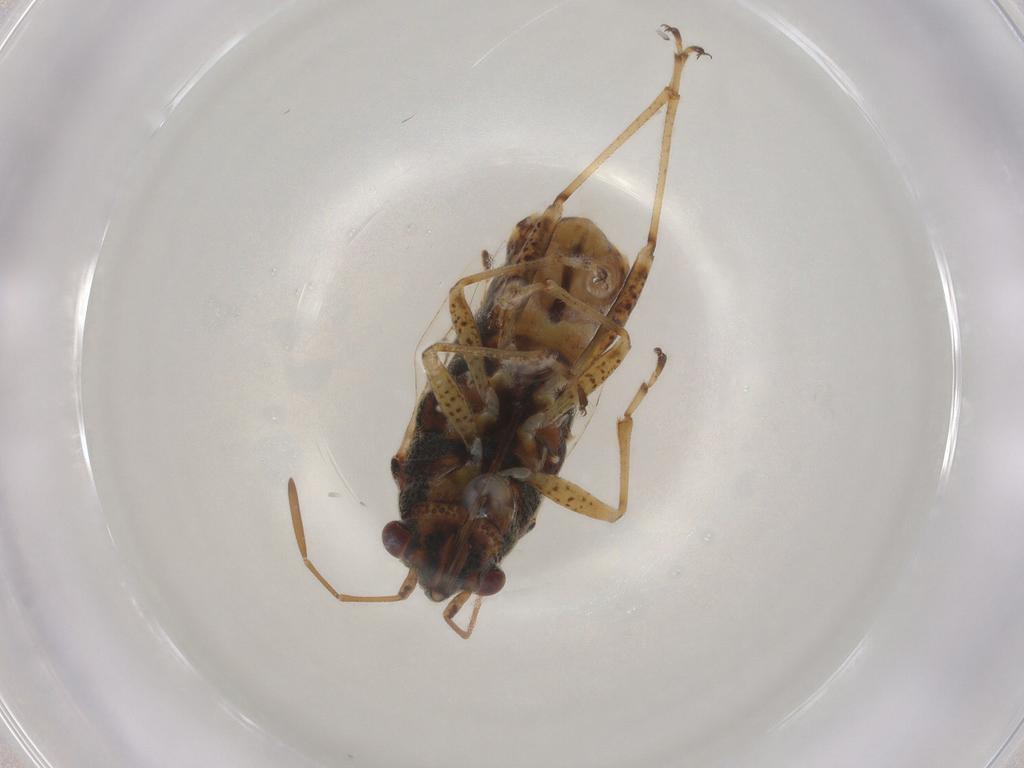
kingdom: Animalia
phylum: Arthropoda
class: Insecta
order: Hemiptera
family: Lygaeidae
